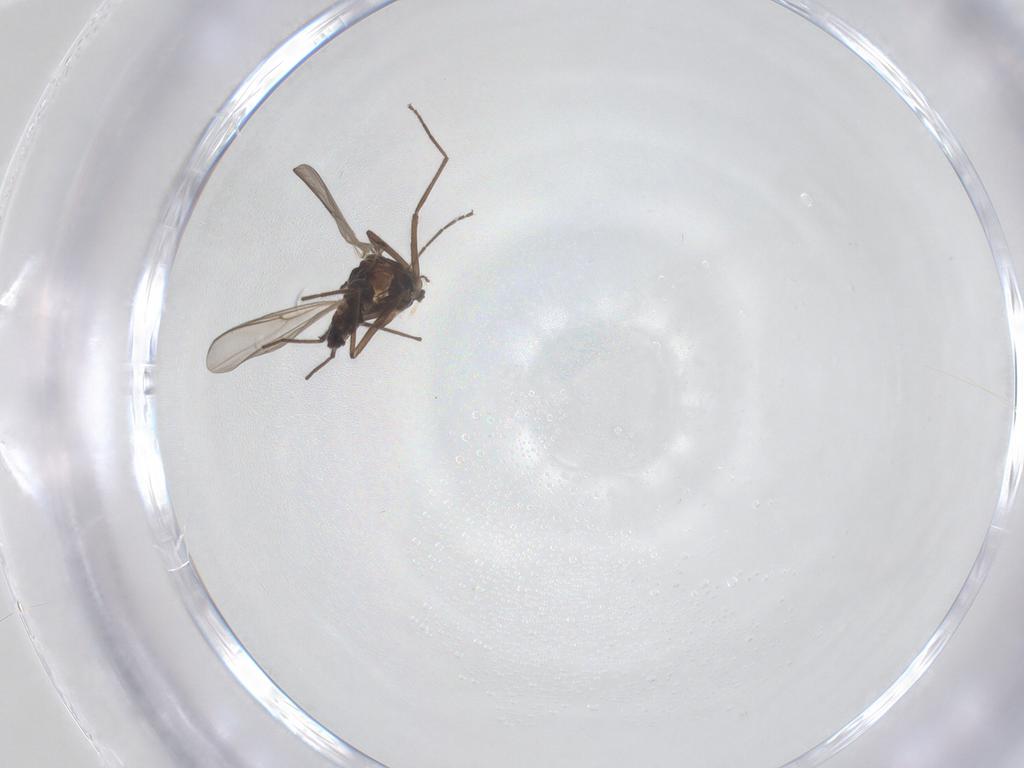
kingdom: Animalia
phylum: Arthropoda
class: Insecta
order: Diptera
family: Chironomidae
